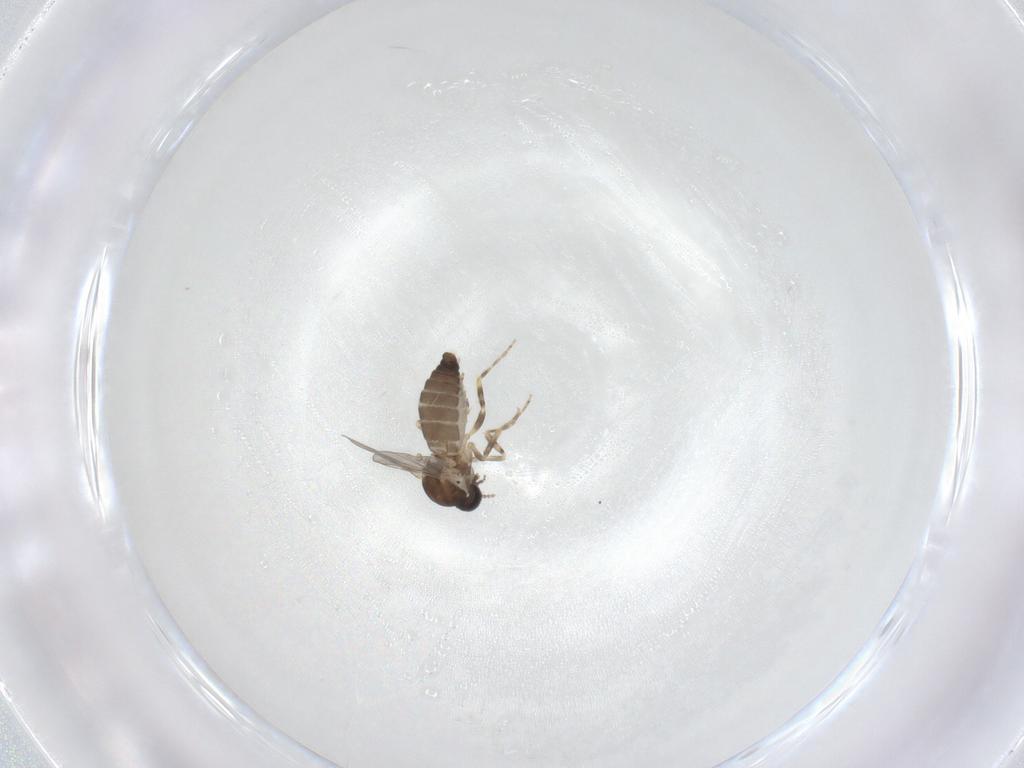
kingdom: Animalia
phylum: Arthropoda
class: Insecta
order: Diptera
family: Ceratopogonidae
